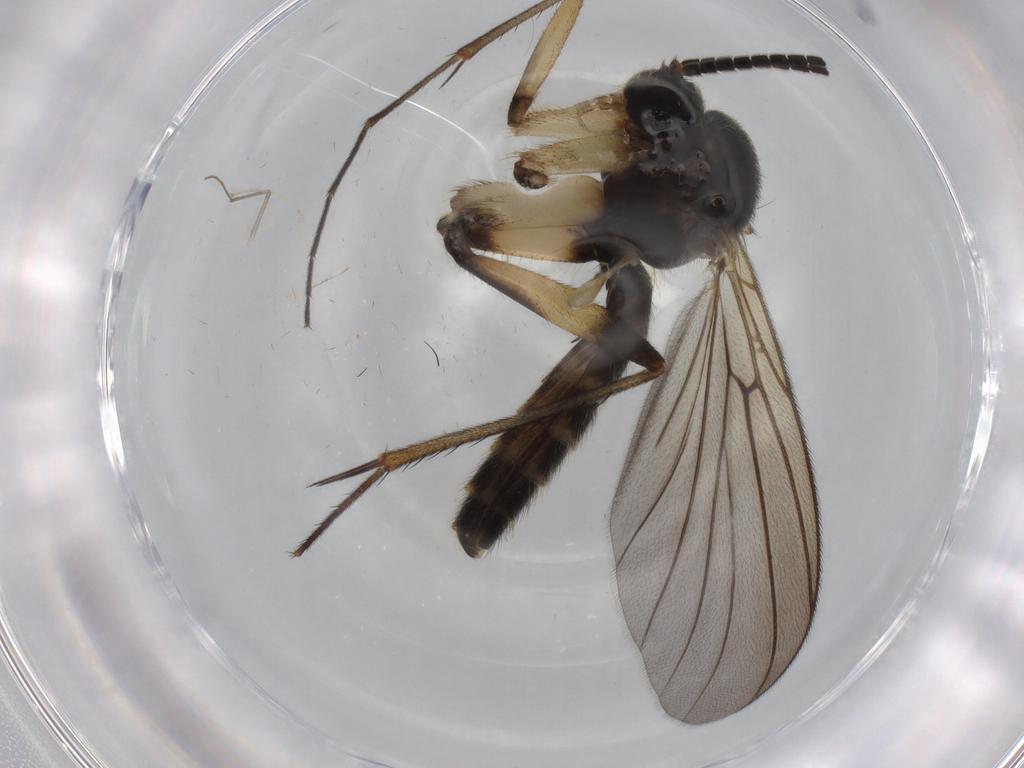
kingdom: Animalia
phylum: Arthropoda
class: Insecta
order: Diptera
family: Mycetophilidae
